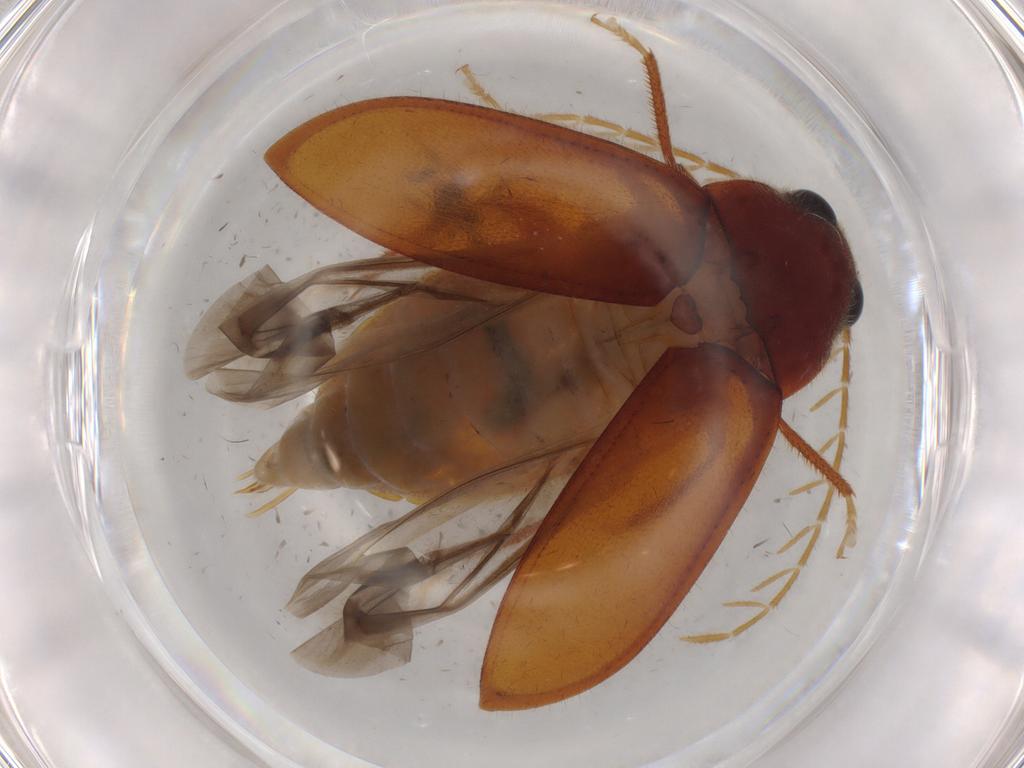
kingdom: Animalia
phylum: Arthropoda
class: Insecta
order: Coleoptera
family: Ptilodactylidae
